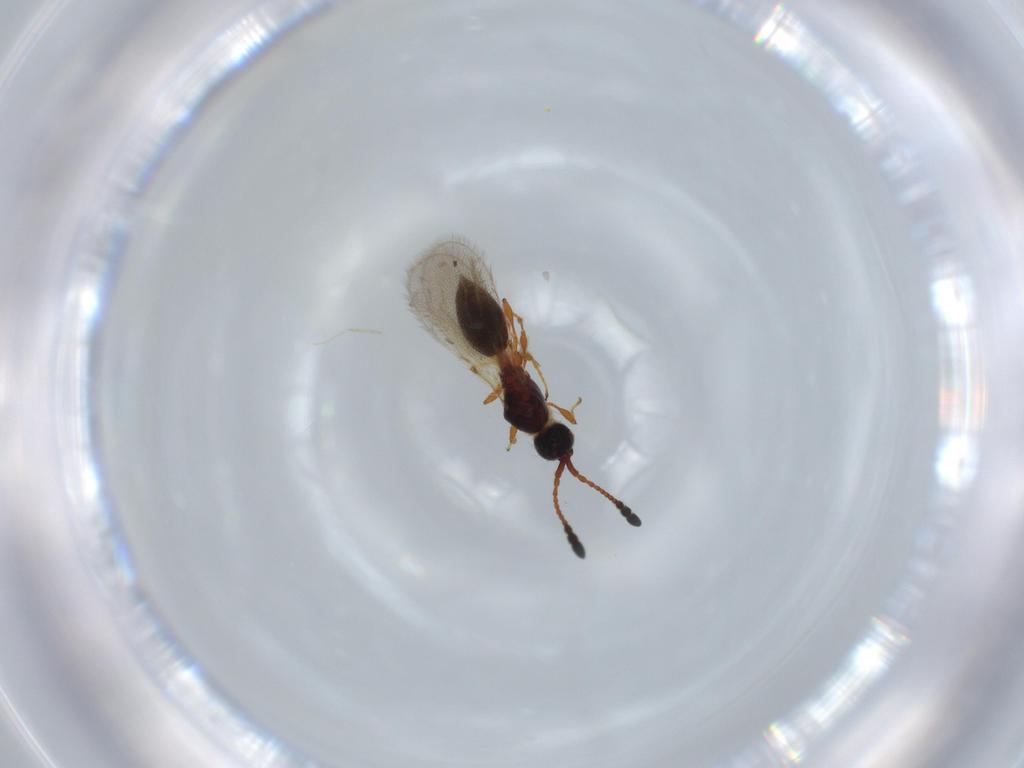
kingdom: Animalia
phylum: Arthropoda
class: Insecta
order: Hymenoptera
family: Diapriidae
